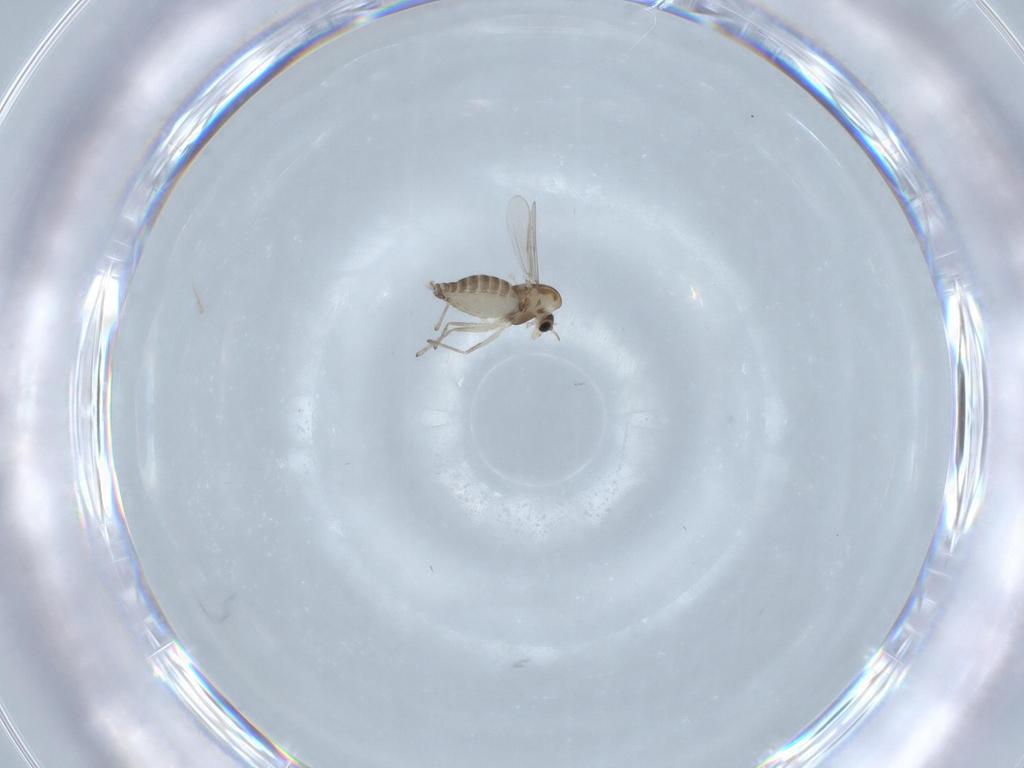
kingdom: Animalia
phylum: Arthropoda
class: Insecta
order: Diptera
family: Chironomidae
